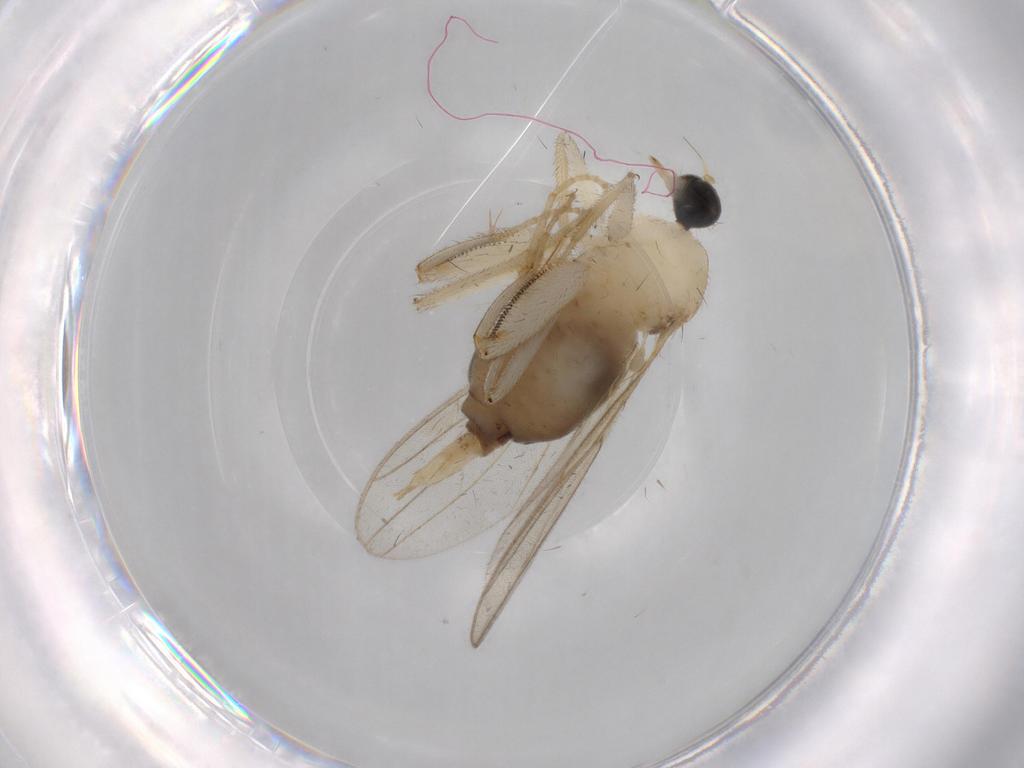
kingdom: Animalia
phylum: Arthropoda
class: Insecta
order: Diptera
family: Hybotidae
